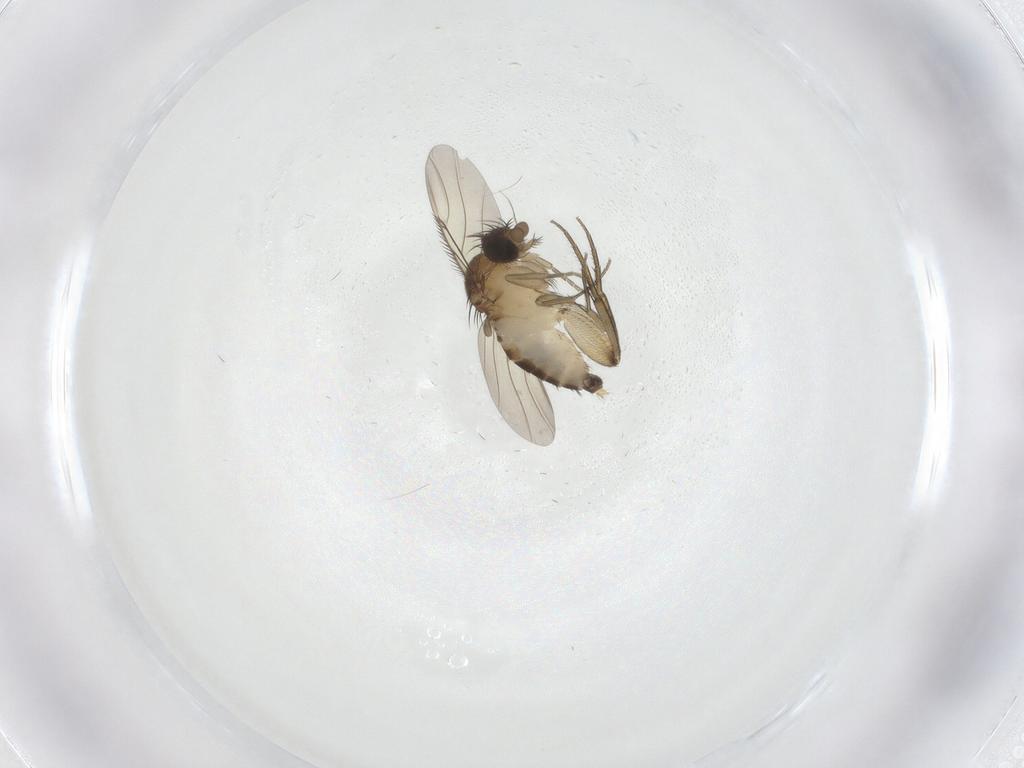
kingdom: Animalia
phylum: Arthropoda
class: Insecta
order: Diptera
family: Phoridae
